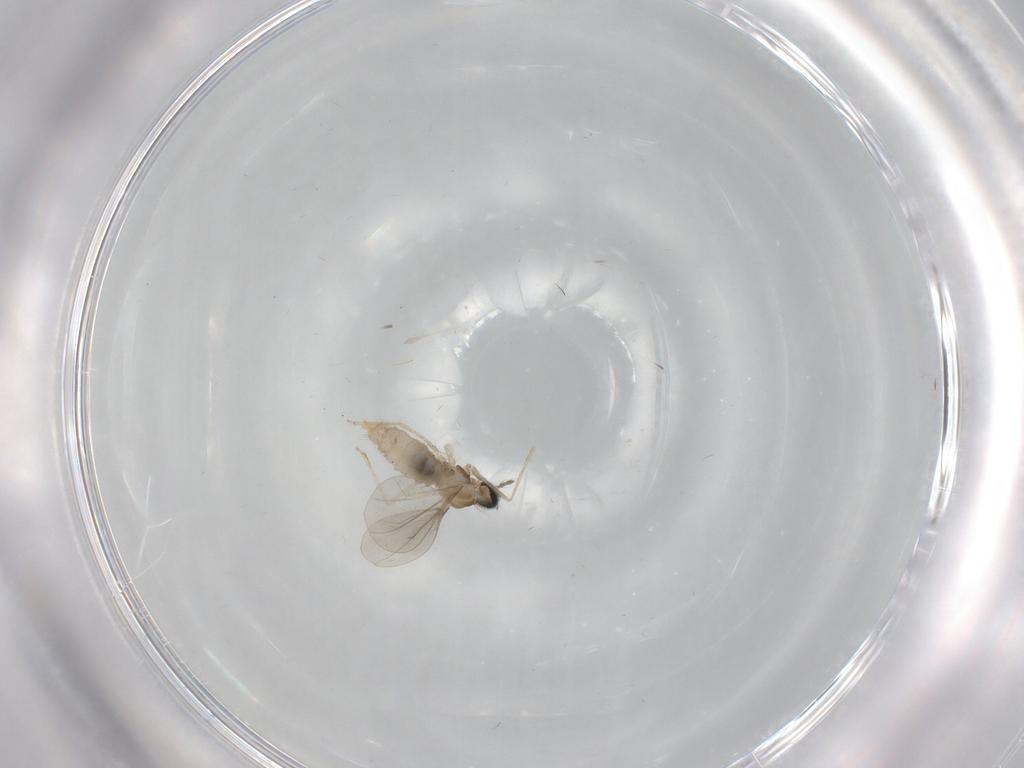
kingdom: Animalia
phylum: Arthropoda
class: Insecta
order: Diptera
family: Cecidomyiidae
